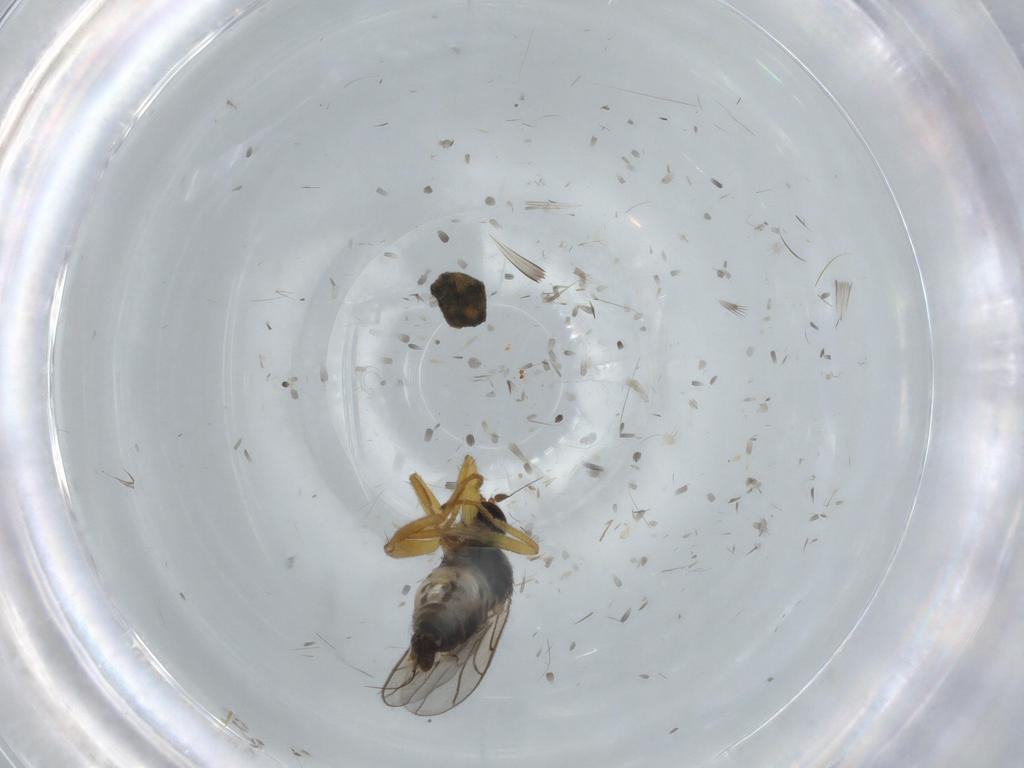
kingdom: Animalia
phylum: Arthropoda
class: Insecta
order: Diptera
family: Phoridae
